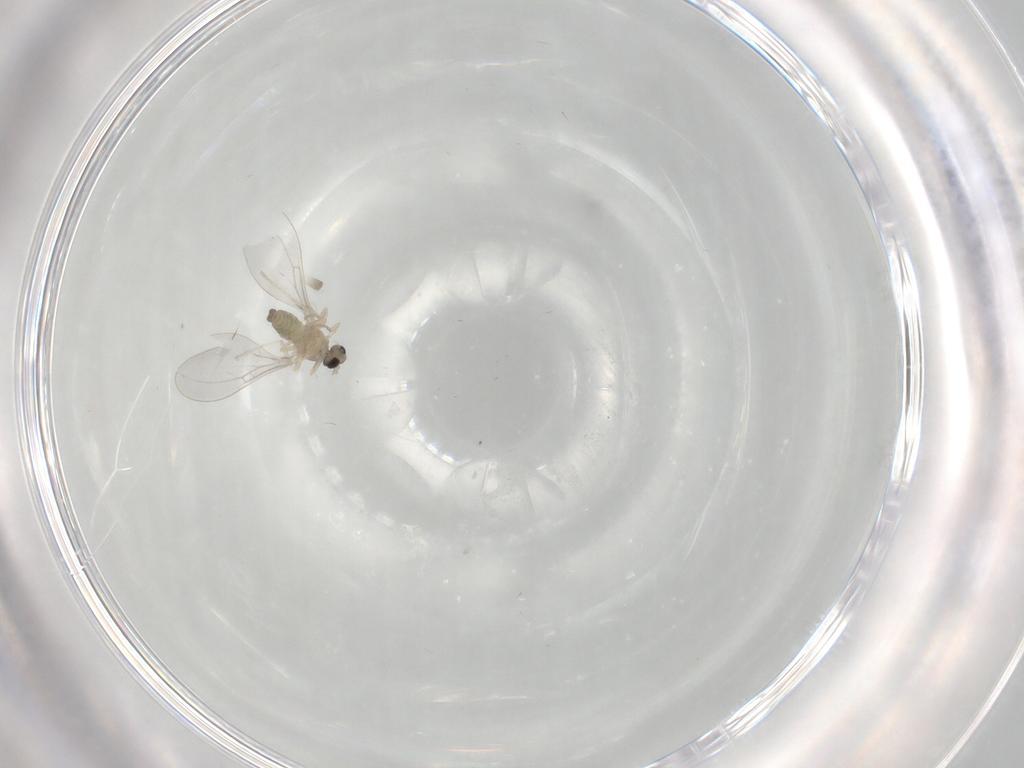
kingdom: Animalia
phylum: Arthropoda
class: Insecta
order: Diptera
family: Cecidomyiidae
